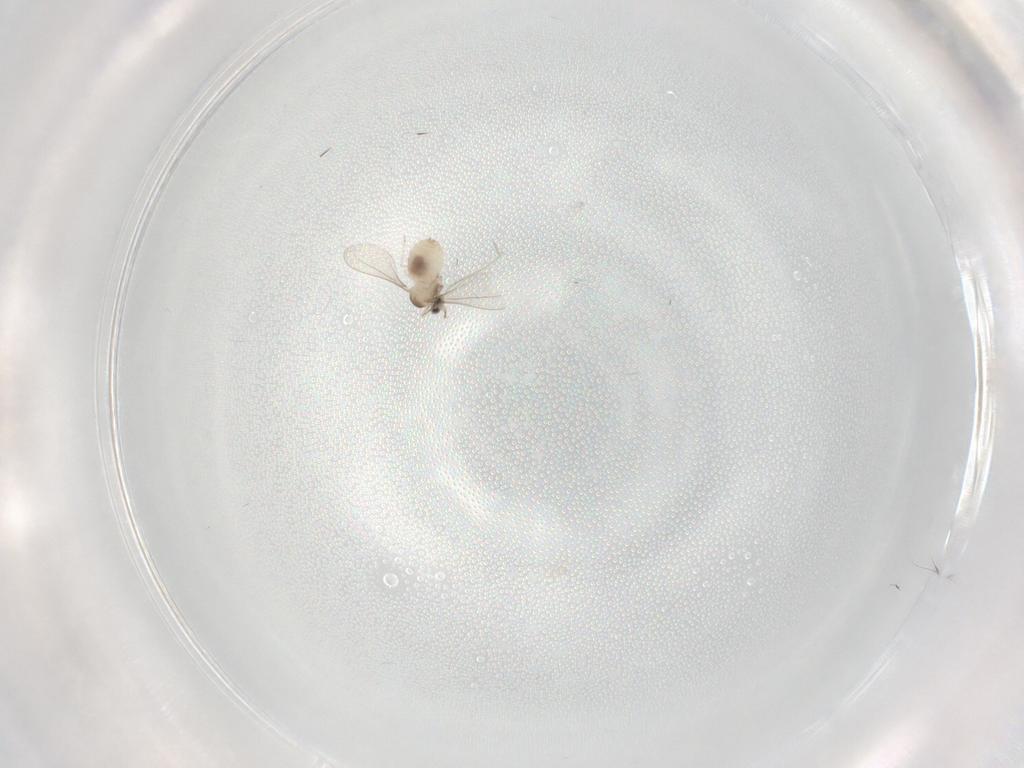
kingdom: Animalia
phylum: Arthropoda
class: Insecta
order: Diptera
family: Cecidomyiidae
